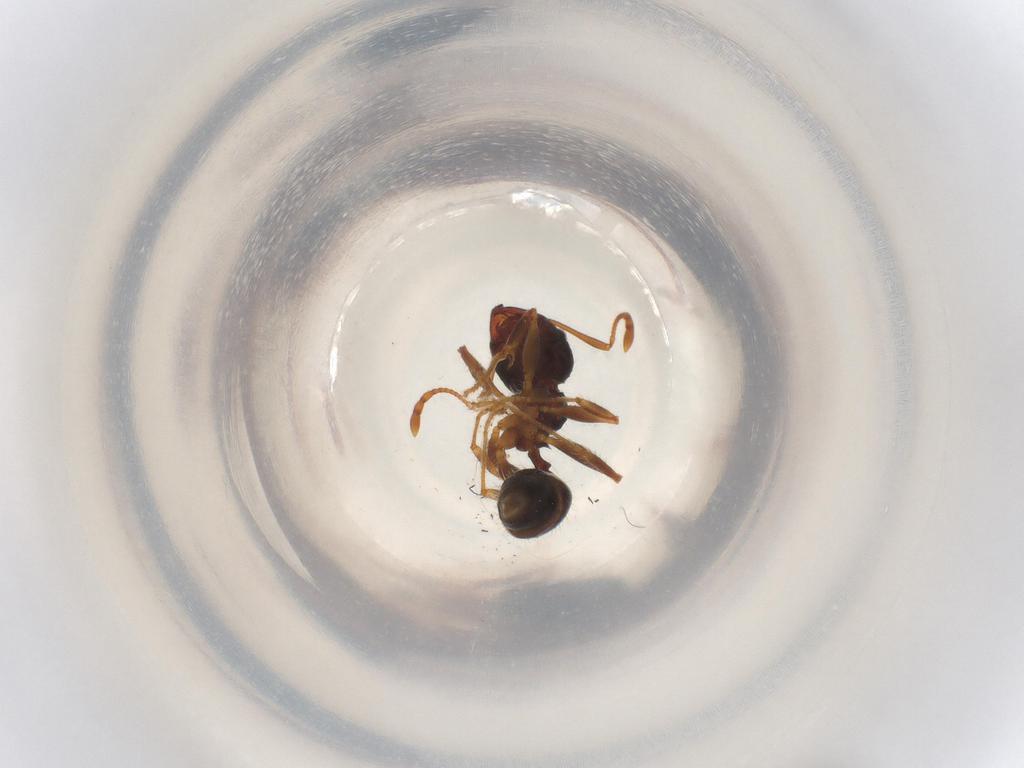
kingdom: Animalia
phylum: Arthropoda
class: Insecta
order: Hymenoptera
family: Formicidae
